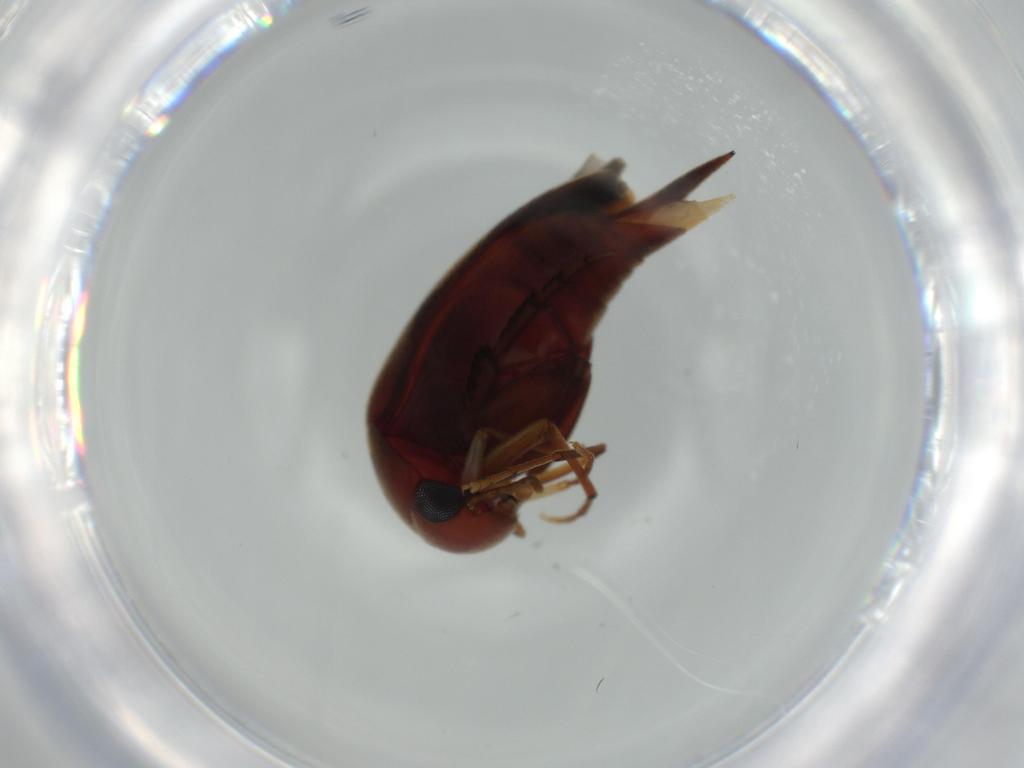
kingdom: Animalia
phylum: Arthropoda
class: Insecta
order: Coleoptera
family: Dermestidae
